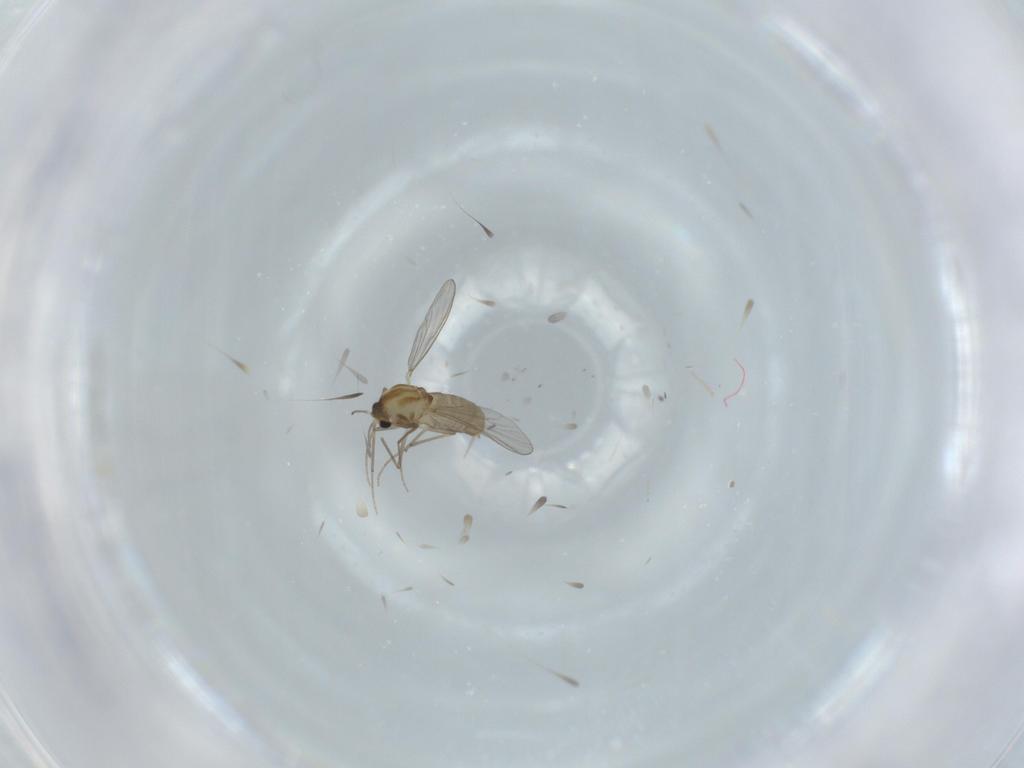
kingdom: Animalia
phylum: Arthropoda
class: Insecta
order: Diptera
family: Chironomidae
